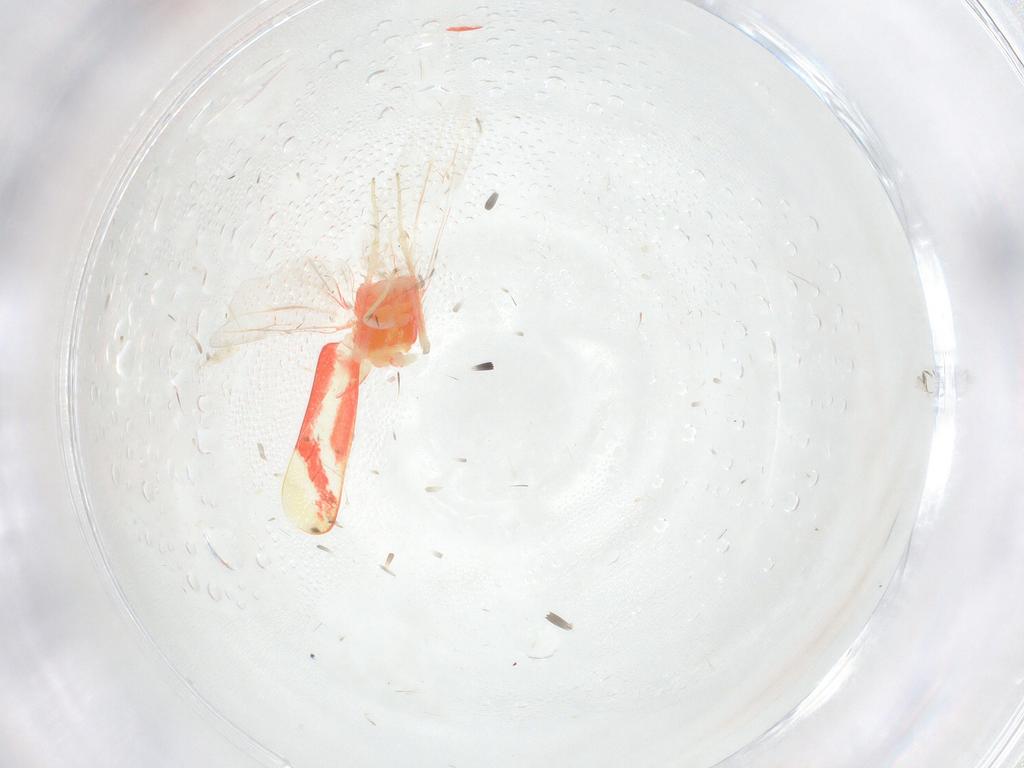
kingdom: Animalia
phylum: Arthropoda
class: Insecta
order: Hemiptera
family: Cicadellidae
